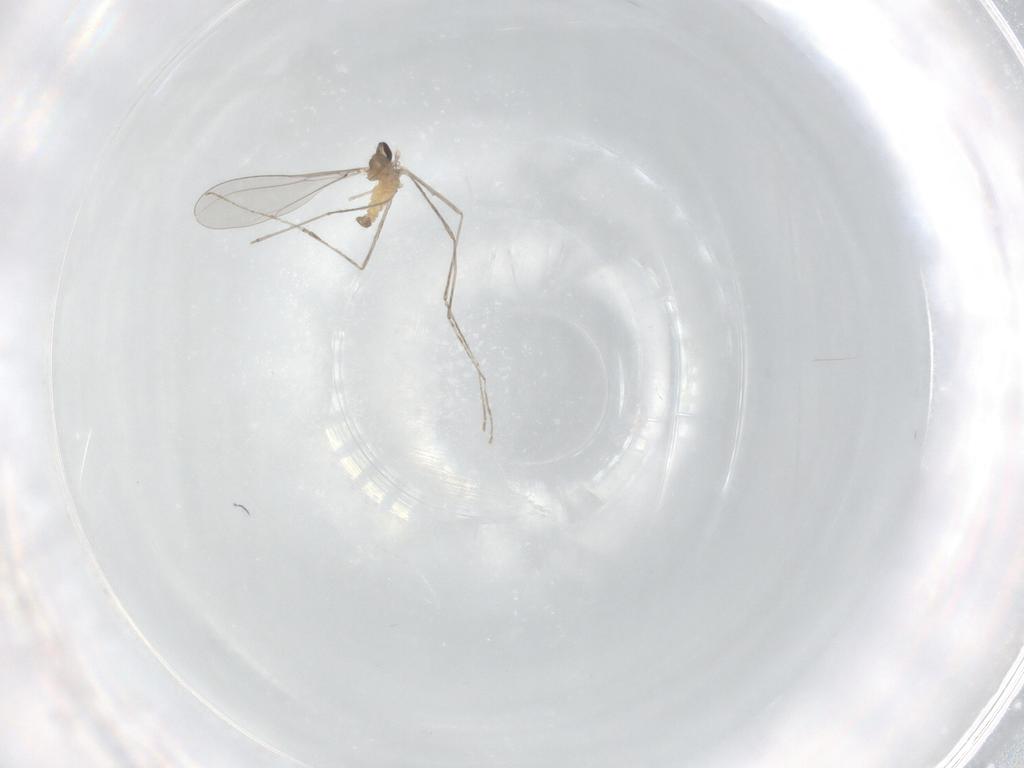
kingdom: Animalia
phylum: Arthropoda
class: Insecta
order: Diptera
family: Cecidomyiidae
